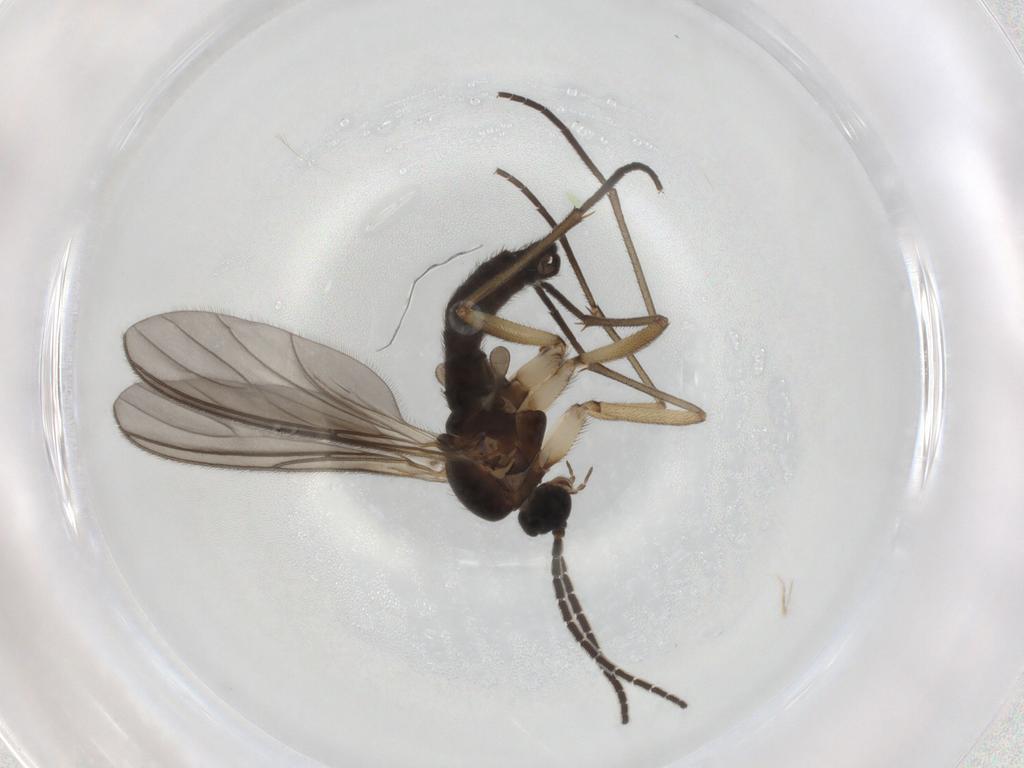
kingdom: Animalia
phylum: Arthropoda
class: Insecta
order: Diptera
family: Sciaridae
